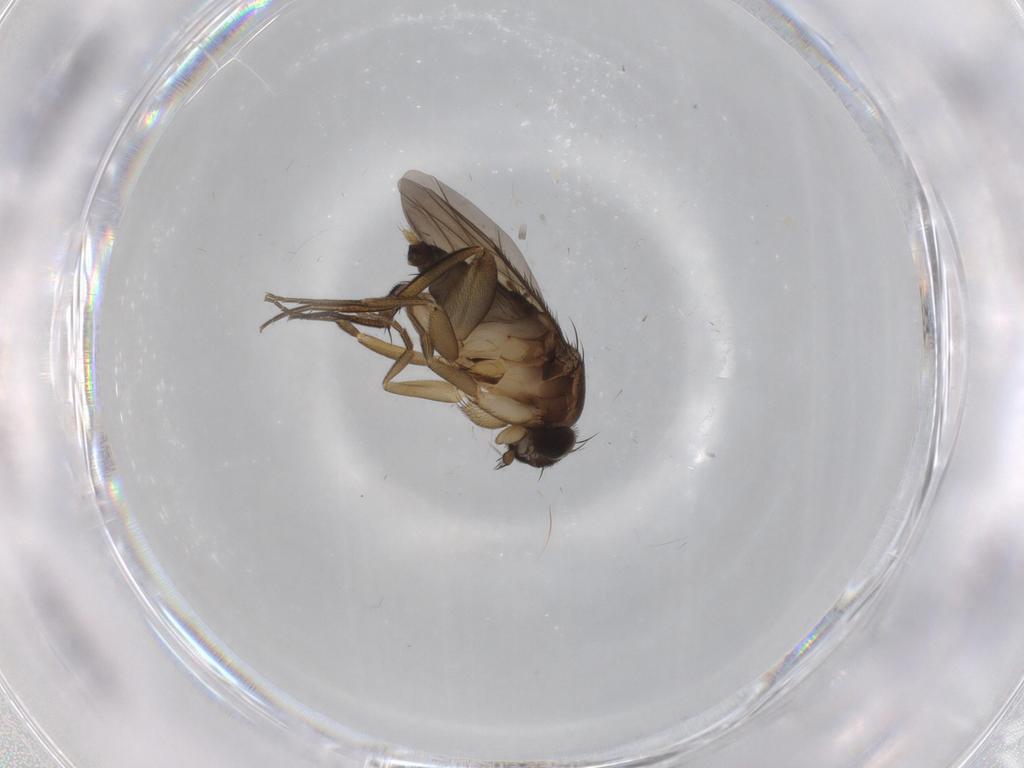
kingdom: Animalia
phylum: Arthropoda
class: Insecta
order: Diptera
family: Phoridae
